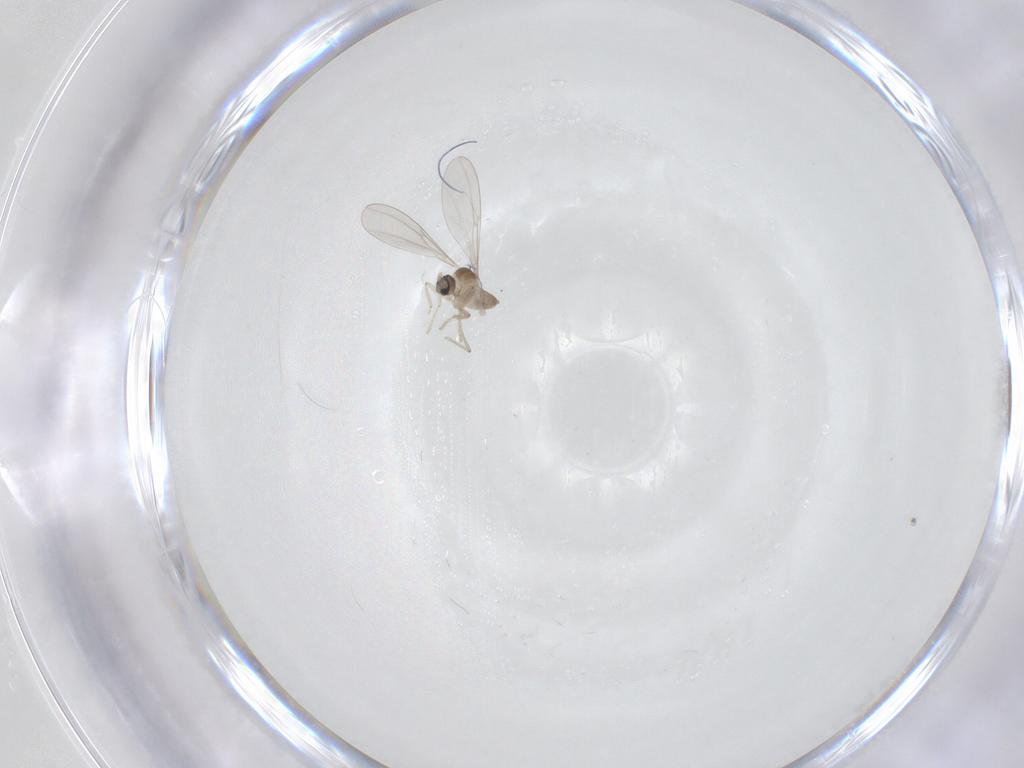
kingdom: Animalia
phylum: Arthropoda
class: Insecta
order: Diptera
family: Cecidomyiidae
